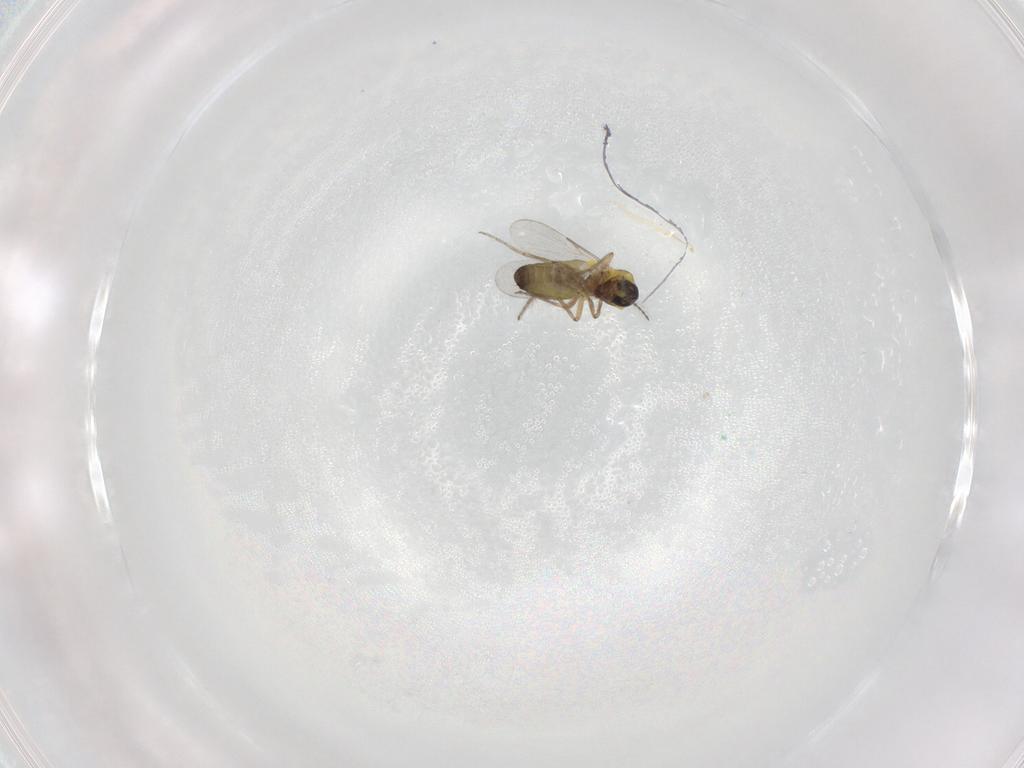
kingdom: Animalia
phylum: Arthropoda
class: Insecta
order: Diptera
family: Ceratopogonidae
